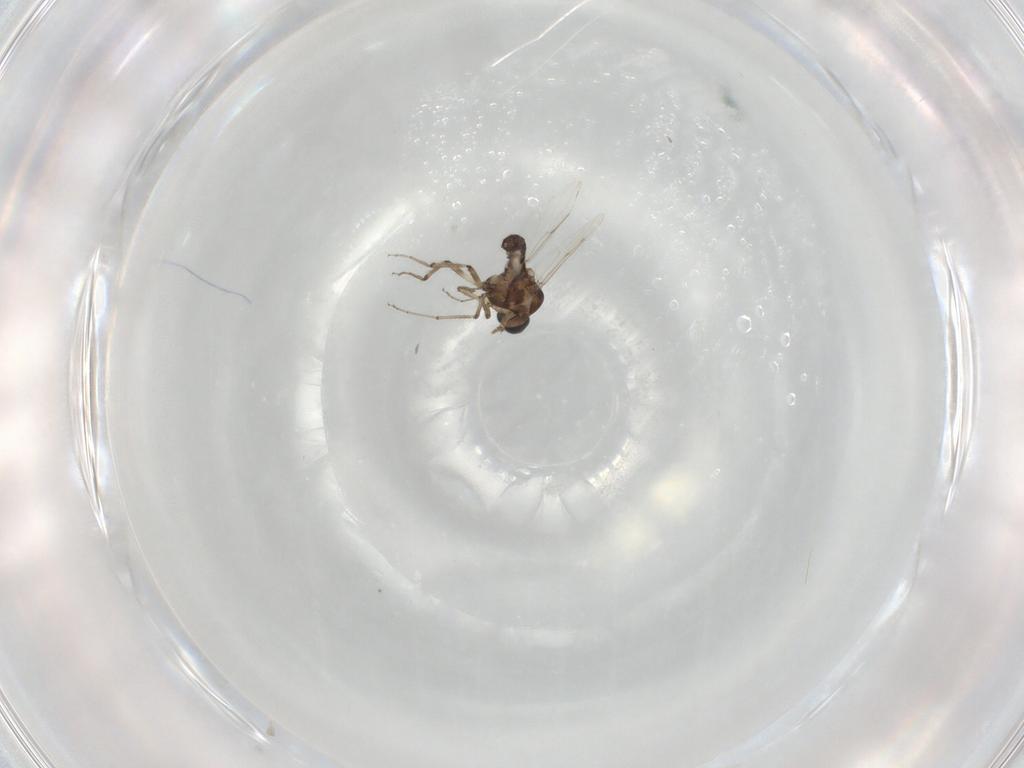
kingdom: Animalia
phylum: Arthropoda
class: Insecta
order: Diptera
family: Ceratopogonidae
